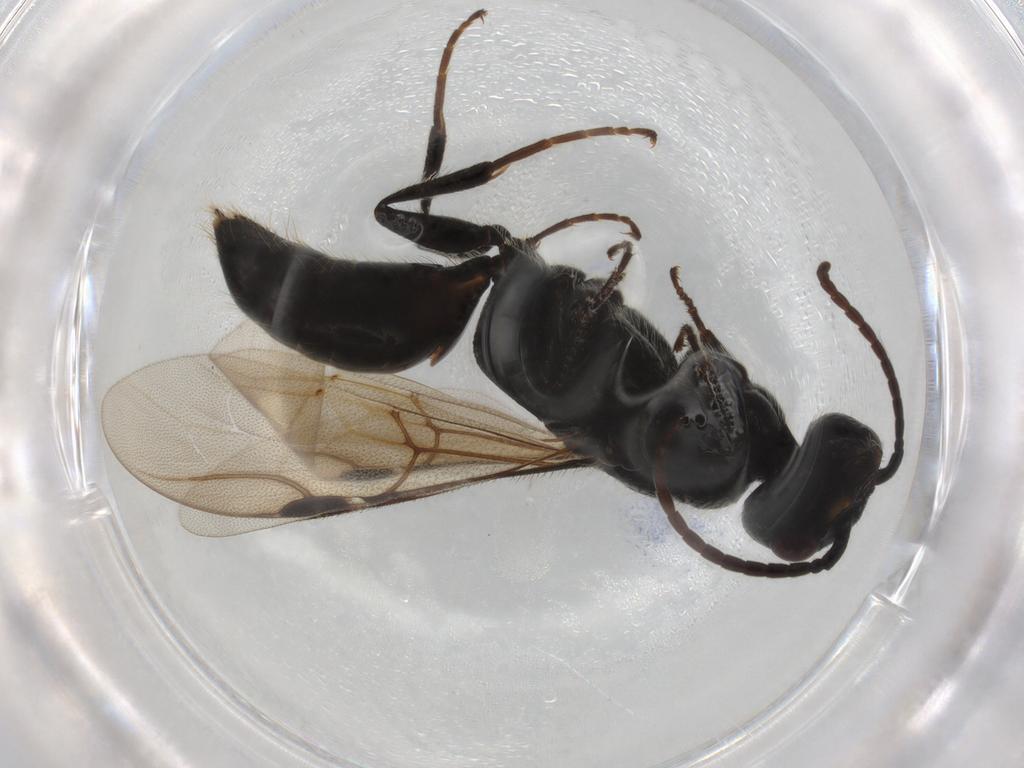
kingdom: Animalia
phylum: Arthropoda
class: Insecta
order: Hymenoptera
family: Bethylidae
